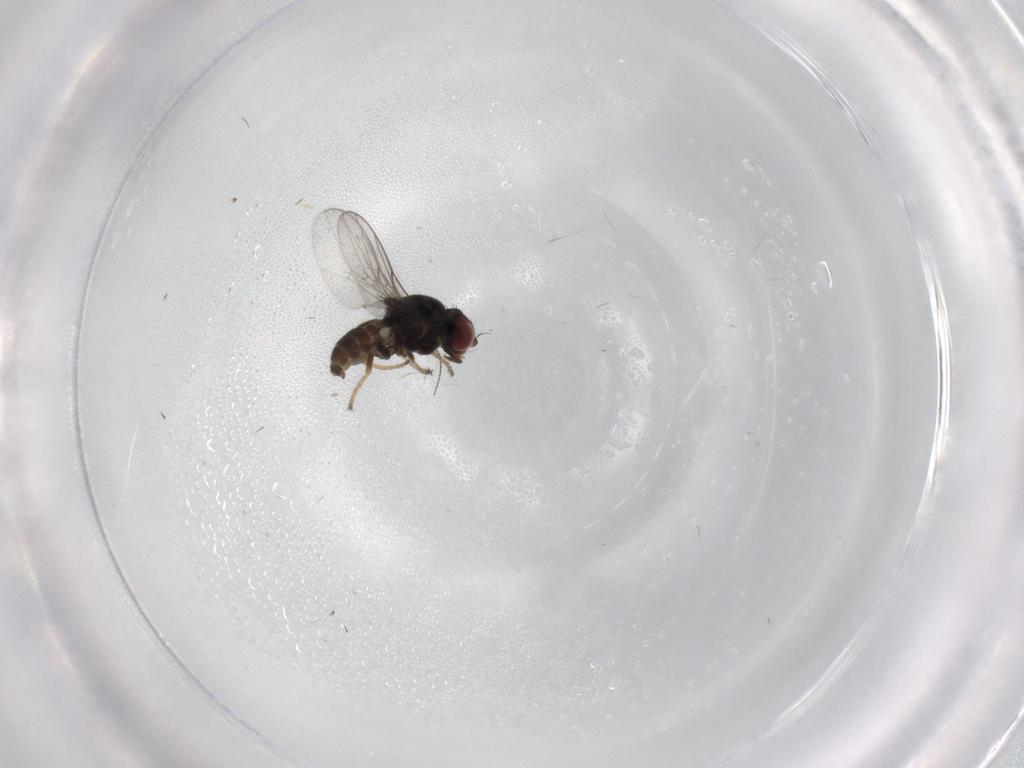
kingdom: Animalia
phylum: Arthropoda
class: Insecta
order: Diptera
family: Chloropidae
